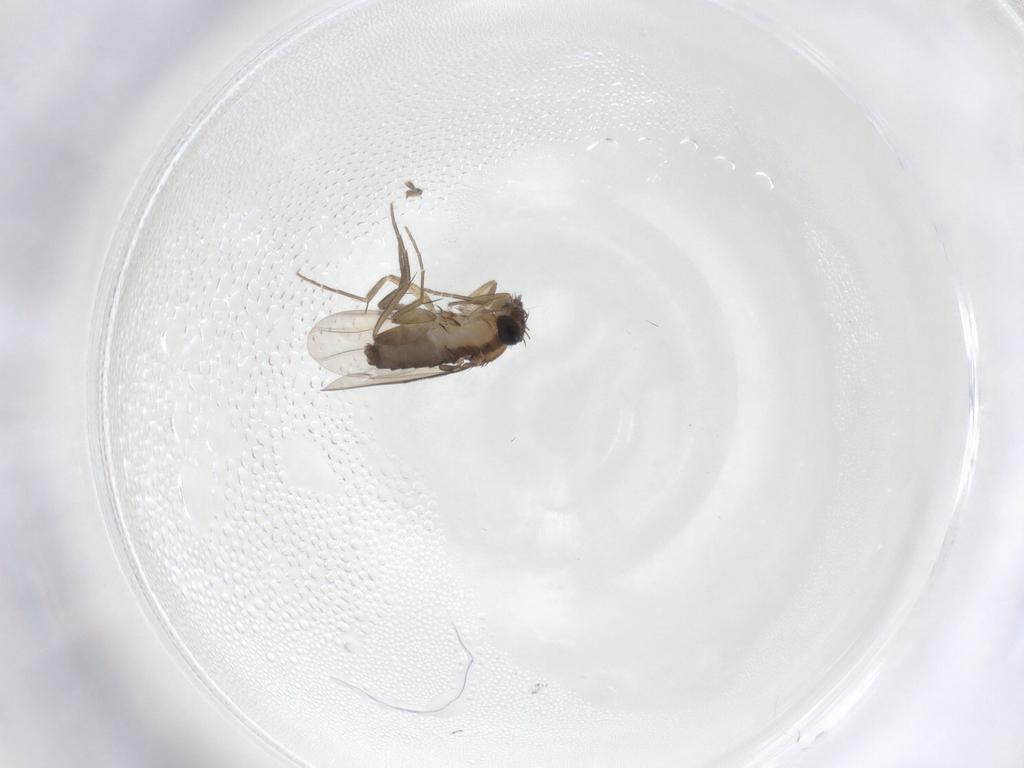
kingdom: Animalia
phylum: Arthropoda
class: Insecta
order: Diptera
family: Phoridae
